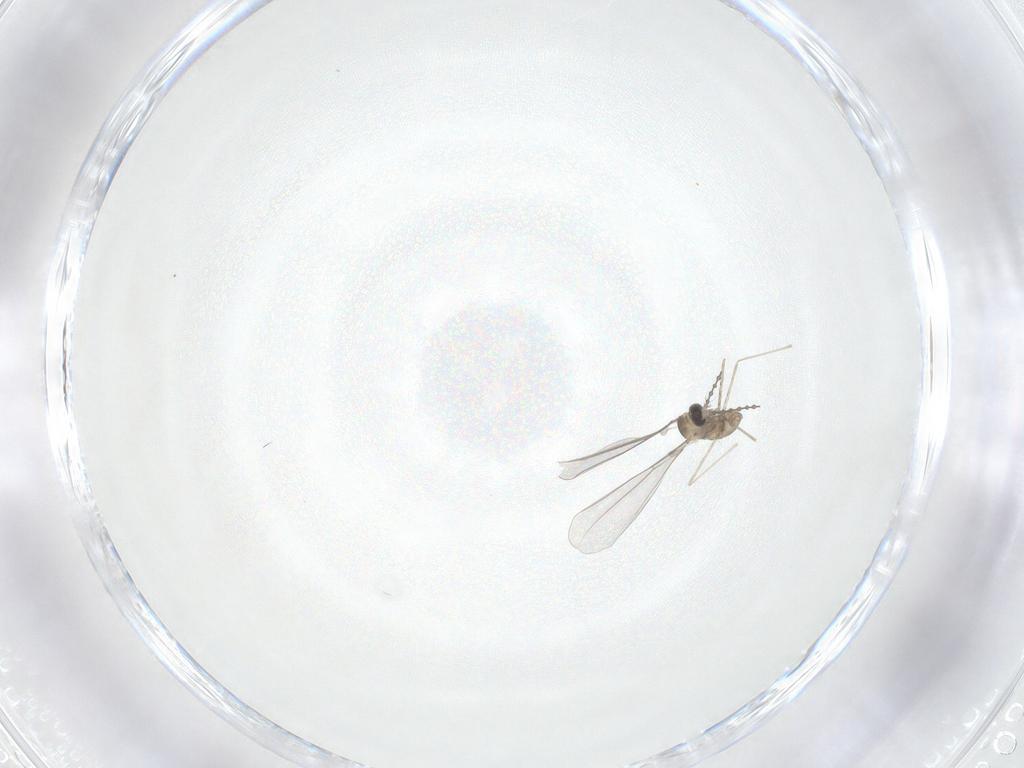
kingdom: Animalia
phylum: Arthropoda
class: Insecta
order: Diptera
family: Cecidomyiidae
